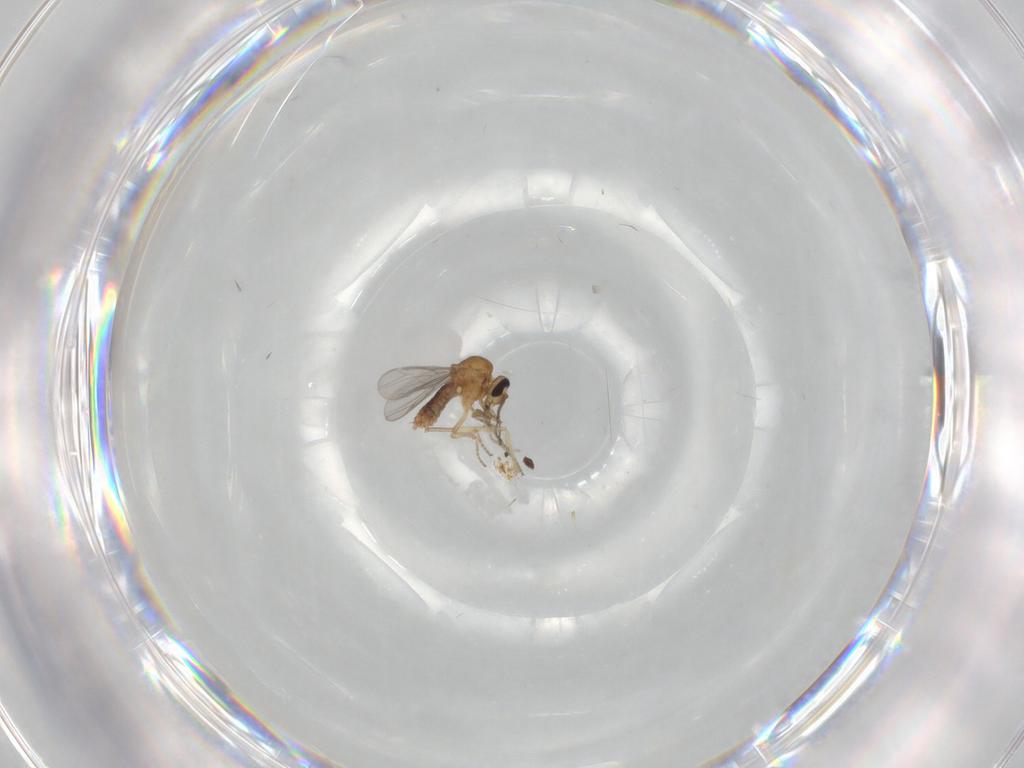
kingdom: Animalia
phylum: Arthropoda
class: Insecta
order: Diptera
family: Ceratopogonidae
